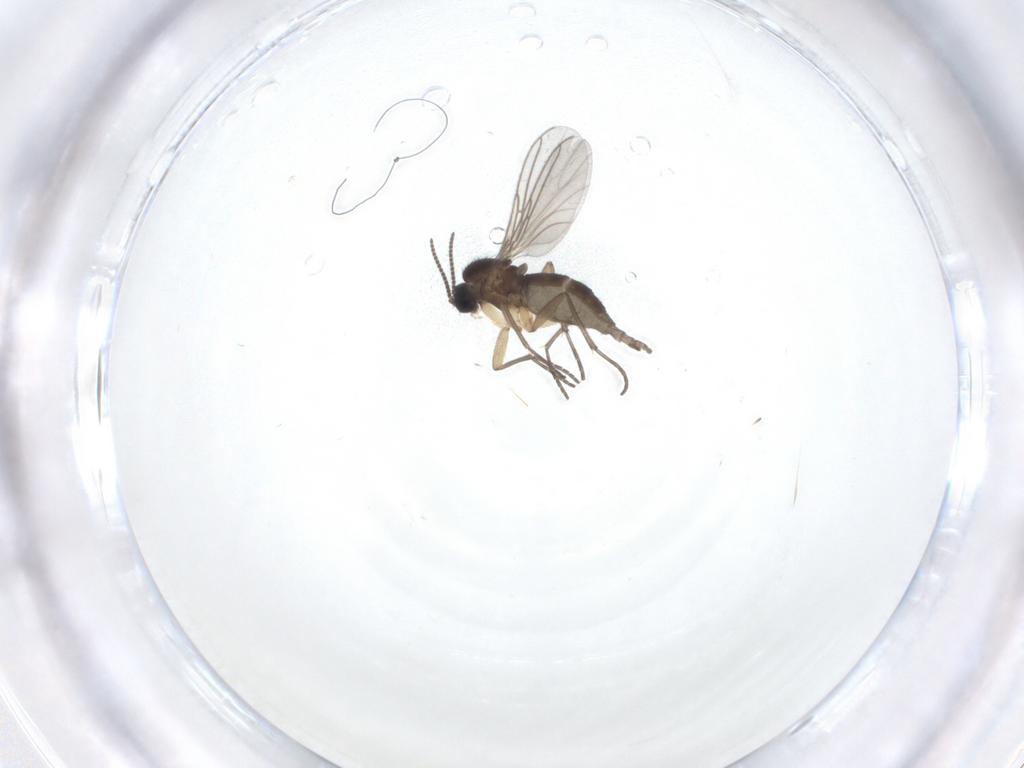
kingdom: Animalia
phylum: Arthropoda
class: Insecta
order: Diptera
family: Sciaridae
